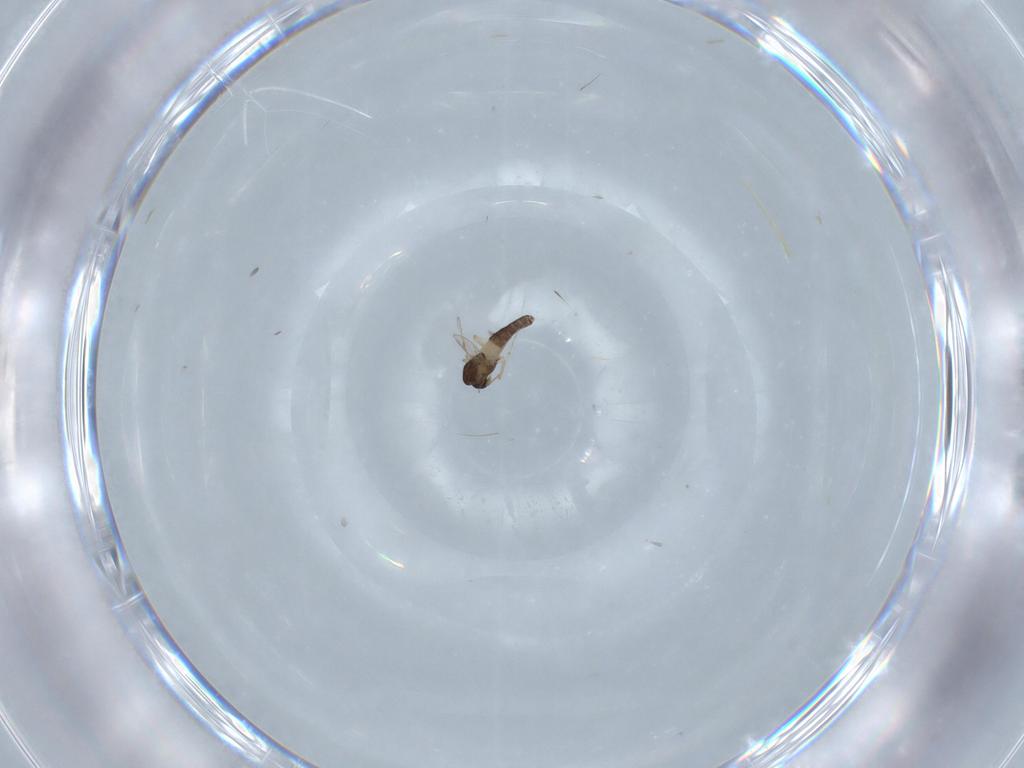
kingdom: Animalia
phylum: Arthropoda
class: Insecta
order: Diptera
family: Chironomidae
